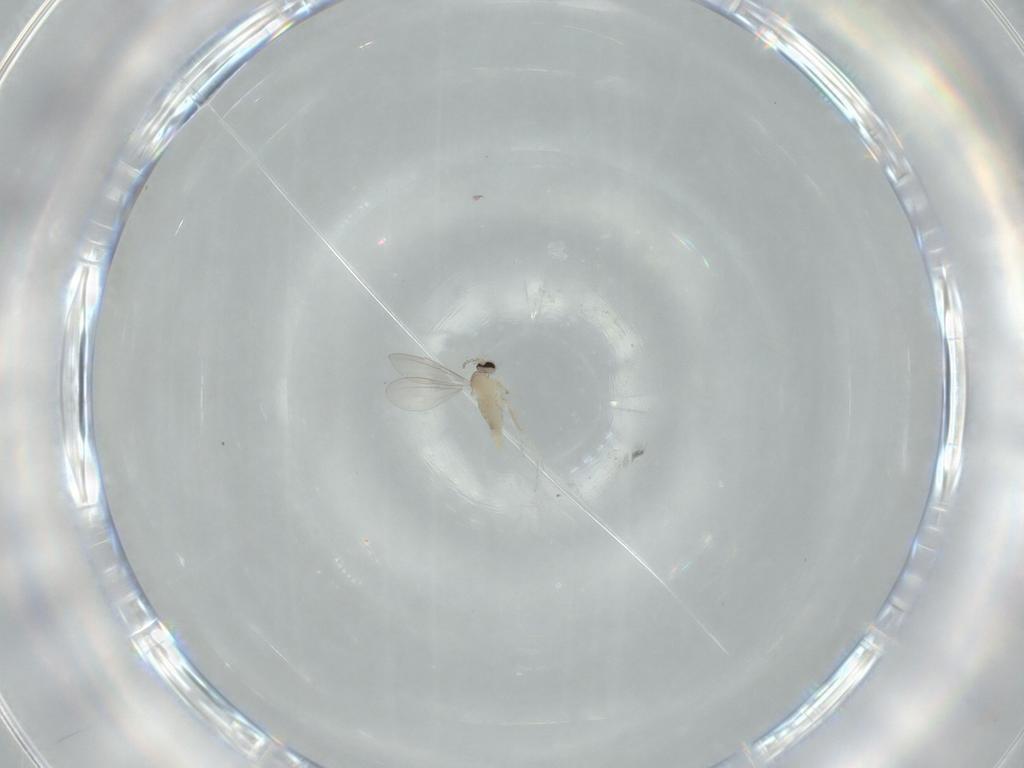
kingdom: Animalia
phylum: Arthropoda
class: Insecta
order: Diptera
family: Cecidomyiidae
